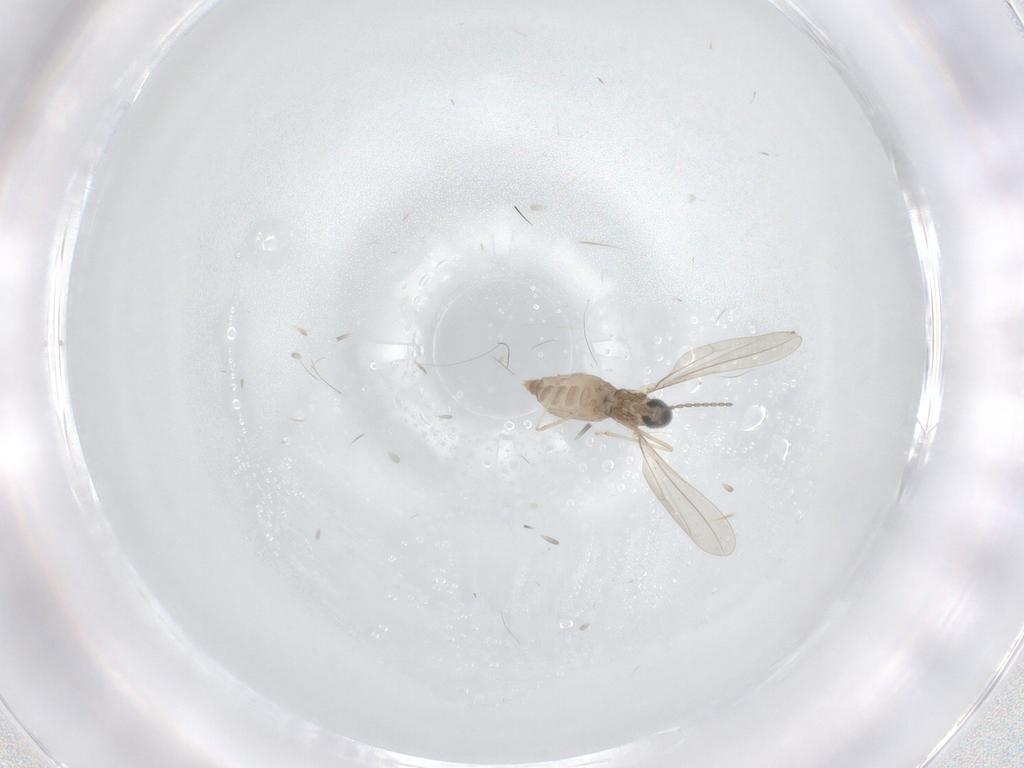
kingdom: Animalia
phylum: Arthropoda
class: Insecta
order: Diptera
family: Cecidomyiidae
